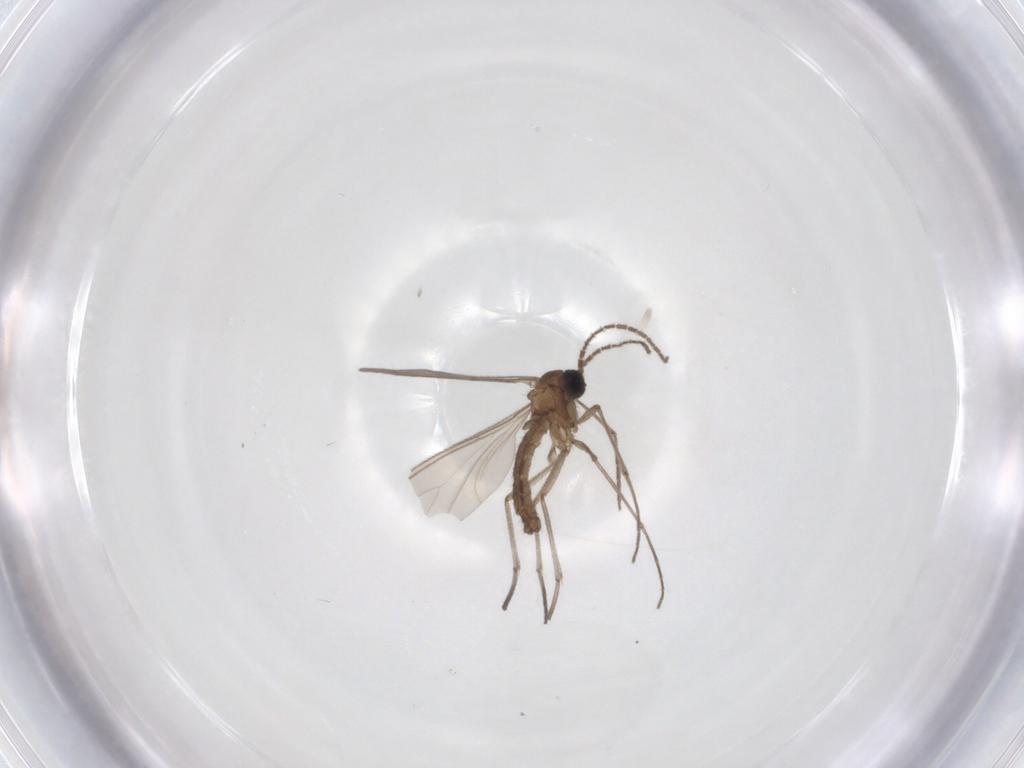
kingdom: Animalia
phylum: Arthropoda
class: Insecta
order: Diptera
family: Sciaridae
